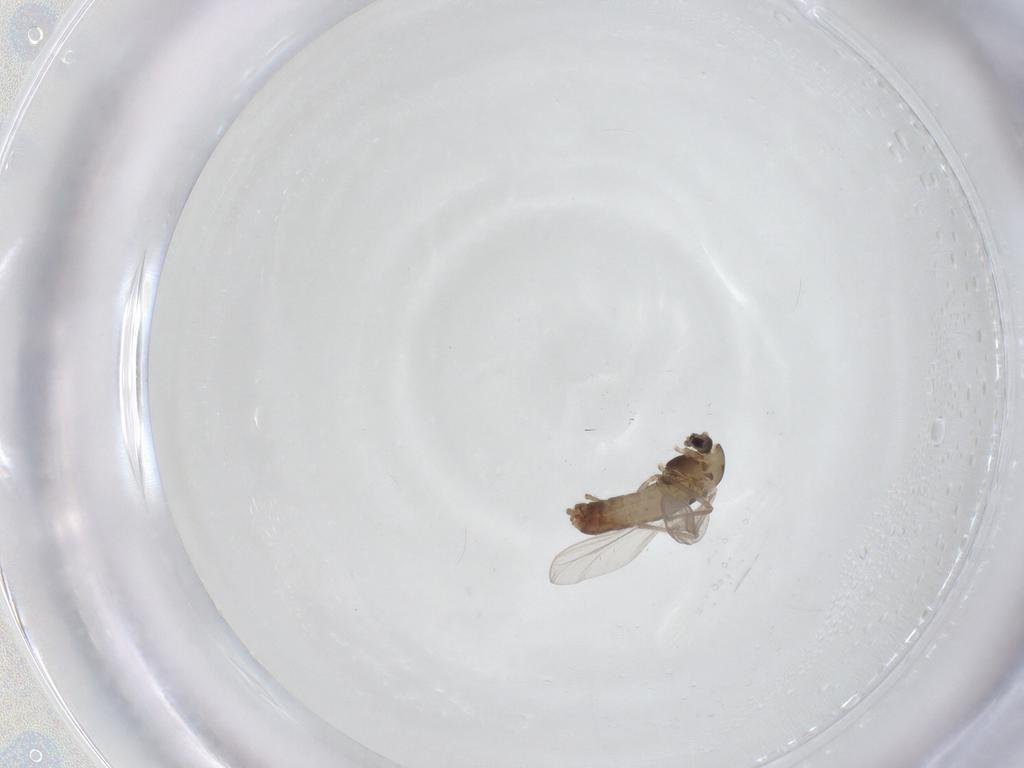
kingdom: Animalia
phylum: Arthropoda
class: Insecta
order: Diptera
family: Chironomidae
